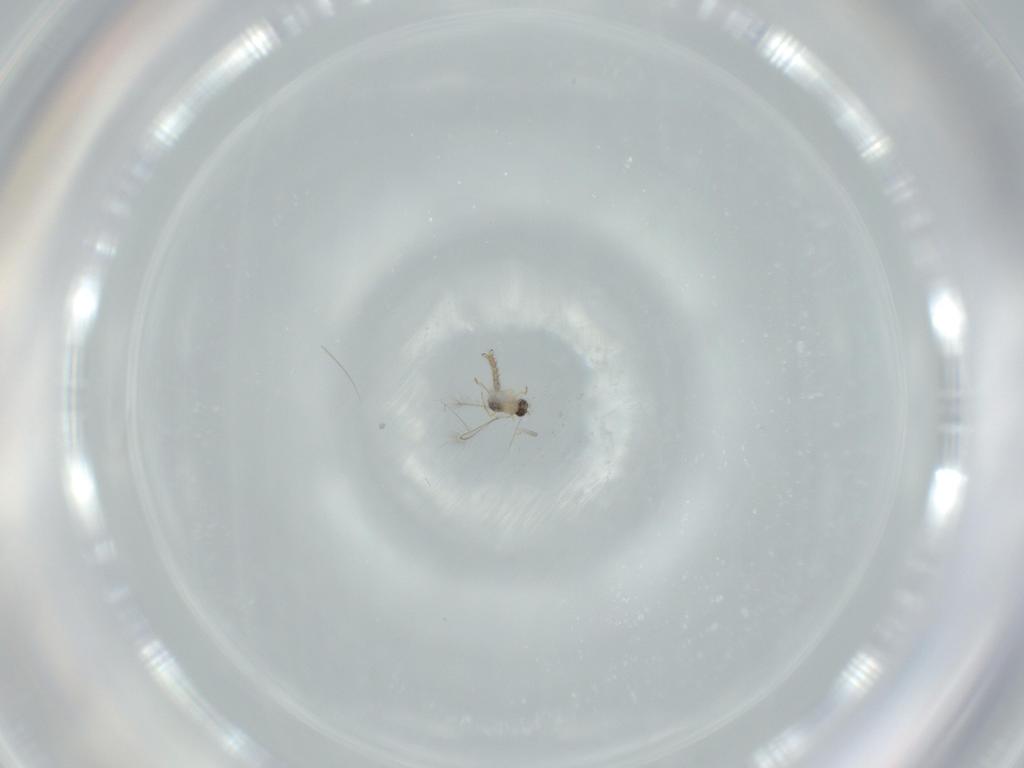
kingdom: Animalia
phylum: Arthropoda
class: Insecta
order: Hymenoptera
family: Mymaridae
